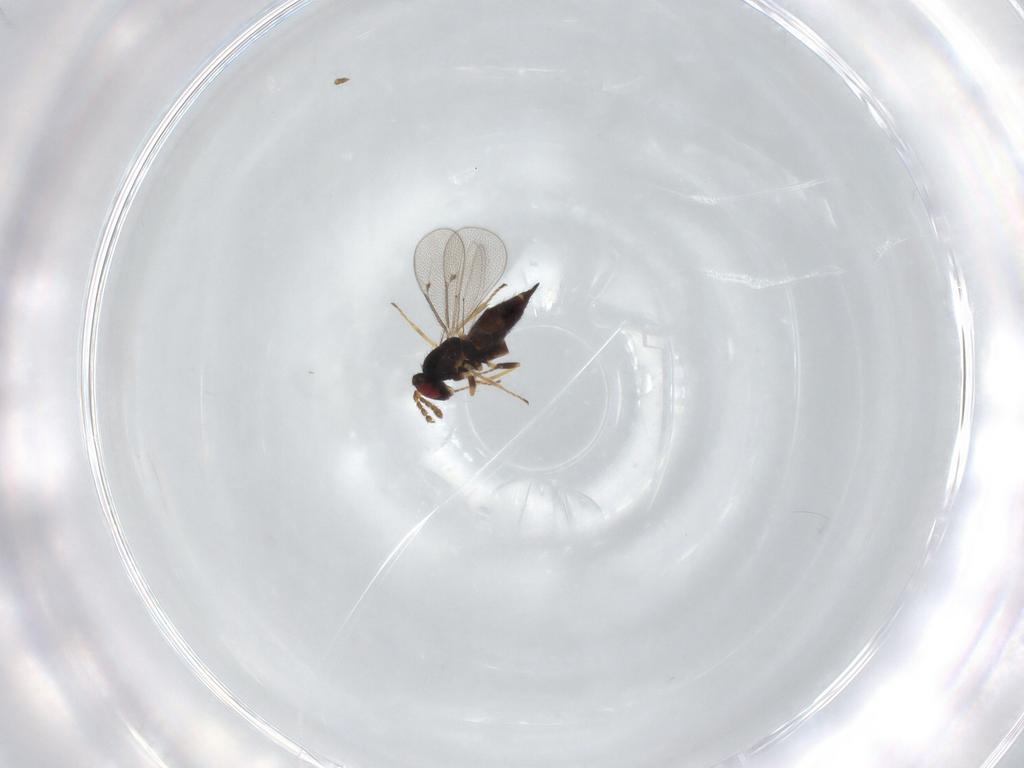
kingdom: Animalia
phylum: Arthropoda
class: Insecta
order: Hymenoptera
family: Eulophidae
